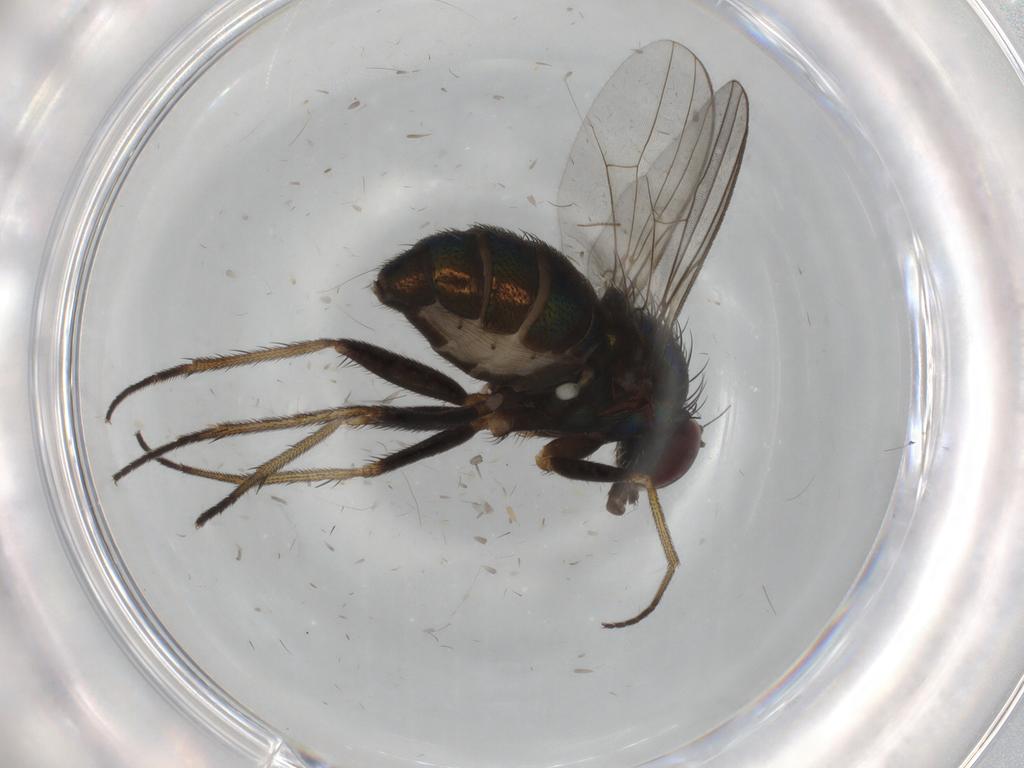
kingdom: Animalia
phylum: Arthropoda
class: Insecta
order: Diptera
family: Dolichopodidae
